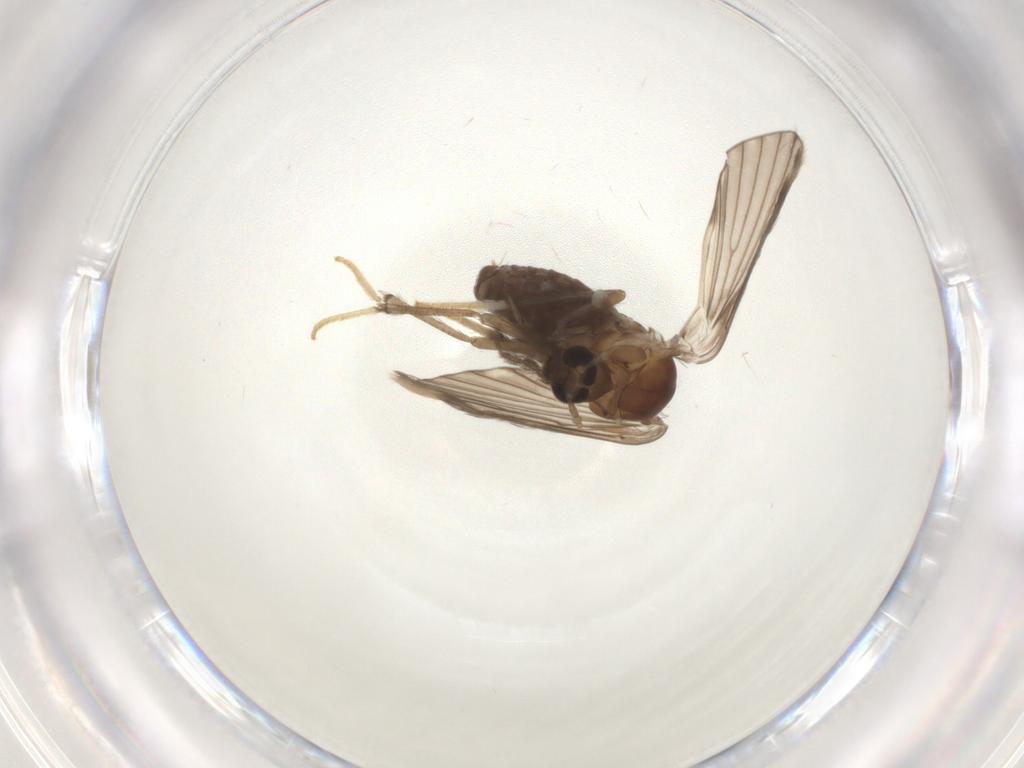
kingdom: Animalia
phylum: Arthropoda
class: Insecta
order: Diptera
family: Psychodidae
